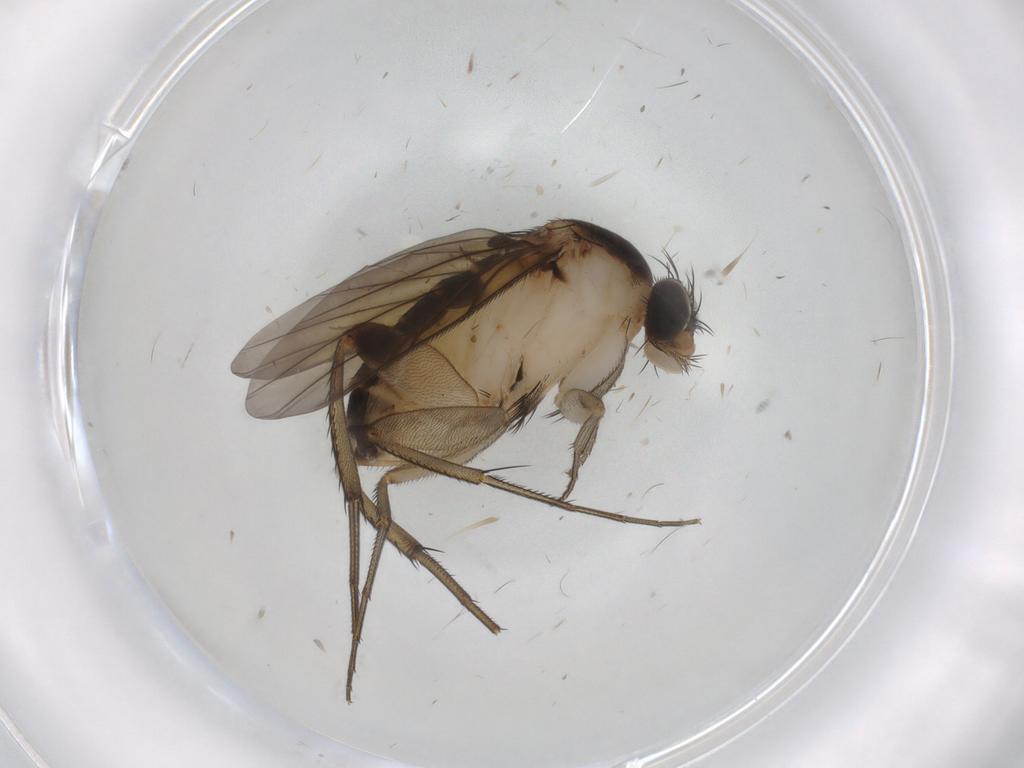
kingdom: Animalia
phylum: Arthropoda
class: Insecta
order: Diptera
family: Phoridae
